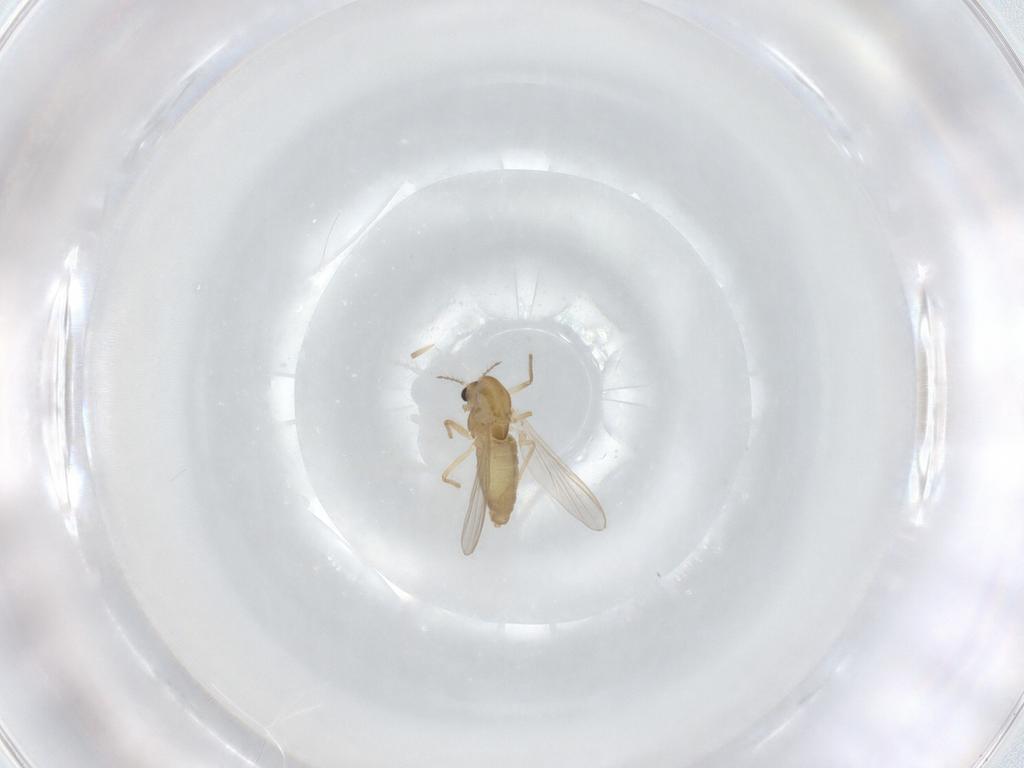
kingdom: Animalia
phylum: Arthropoda
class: Insecta
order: Diptera
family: Chironomidae
